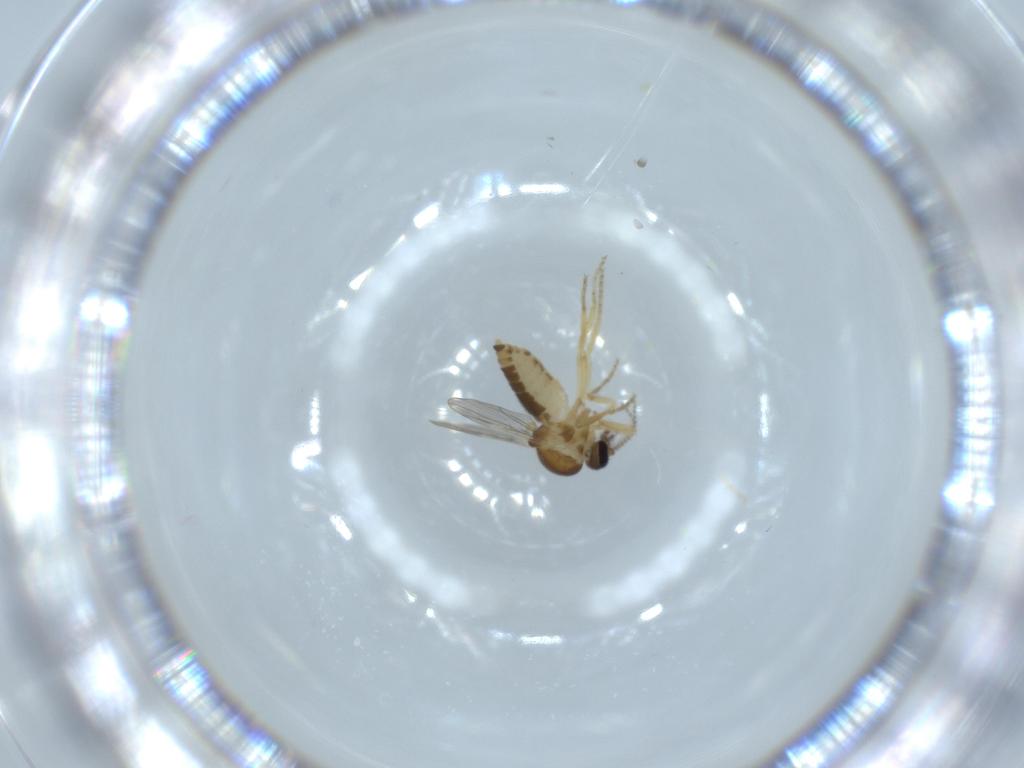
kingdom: Animalia
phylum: Arthropoda
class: Insecta
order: Diptera
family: Ceratopogonidae
